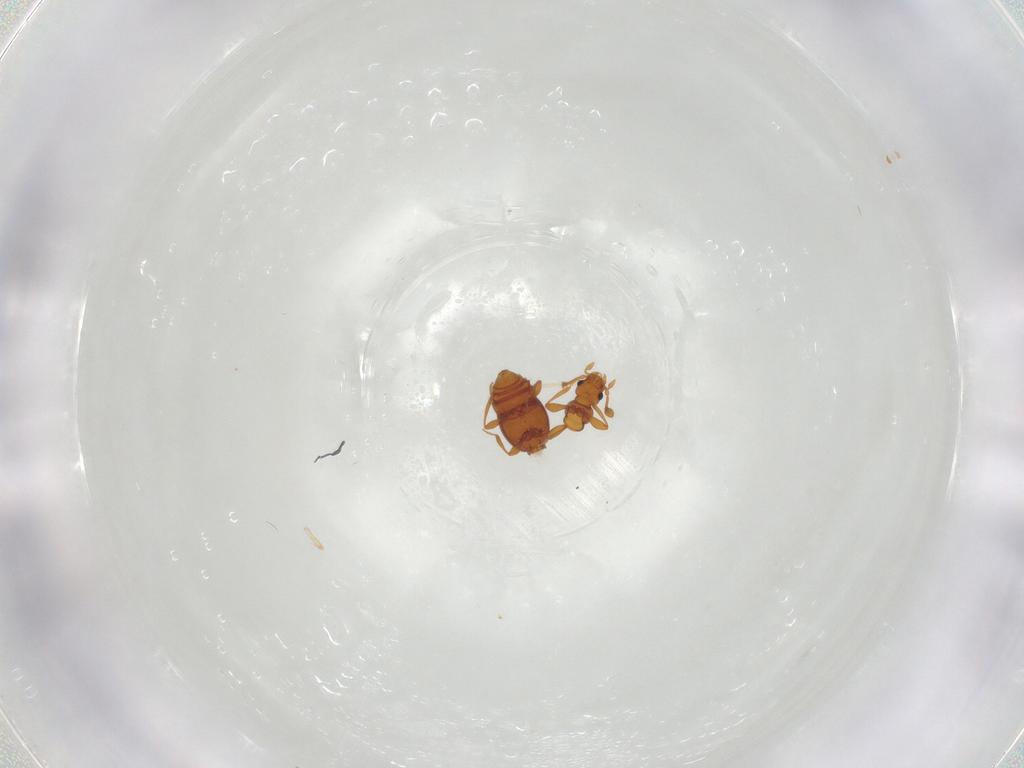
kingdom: Animalia
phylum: Arthropoda
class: Insecta
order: Coleoptera
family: Staphylinidae
